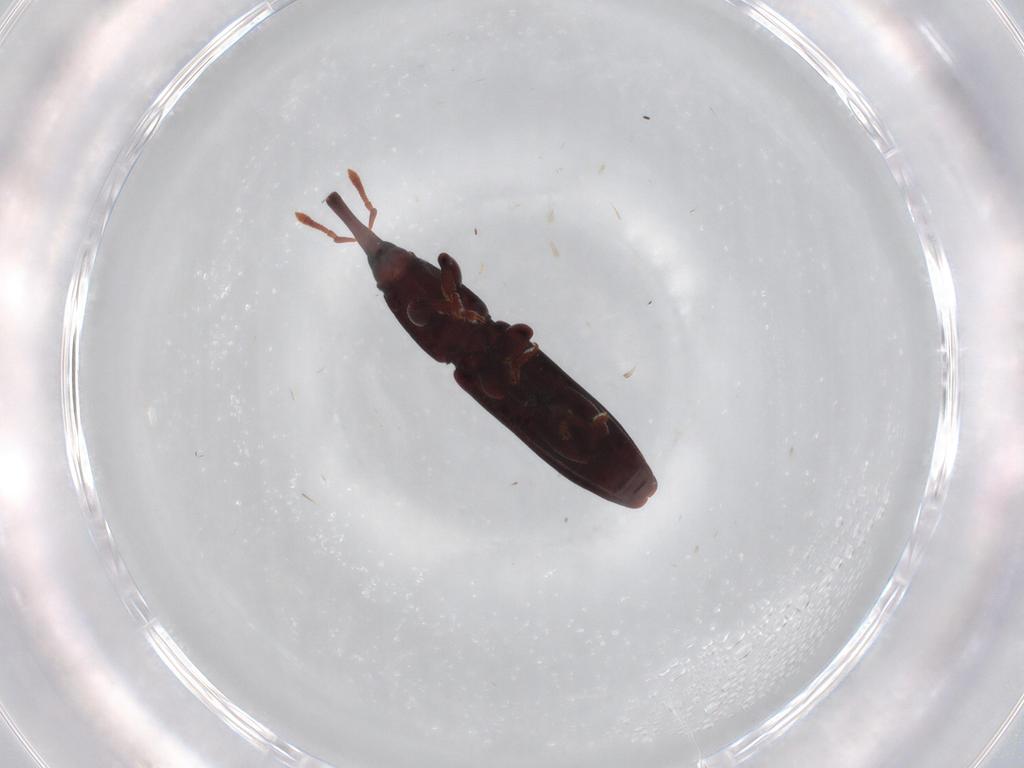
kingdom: Animalia
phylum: Arthropoda
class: Insecta
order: Coleoptera
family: Curculionidae
